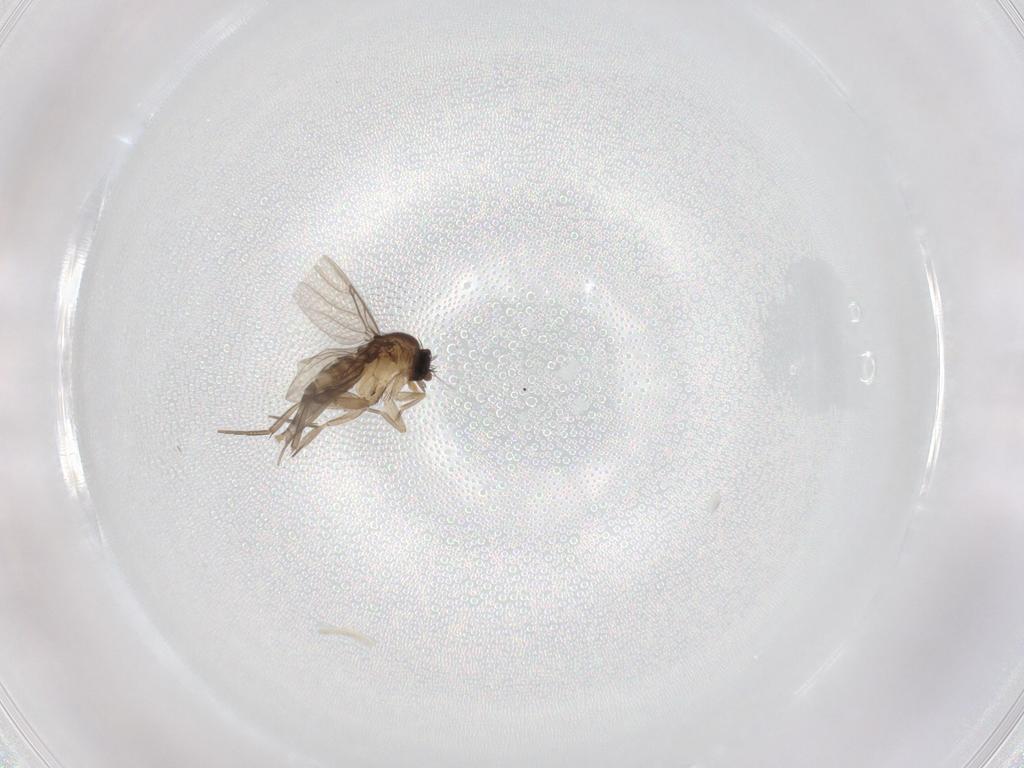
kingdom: Animalia
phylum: Arthropoda
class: Insecta
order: Diptera
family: Phoridae
